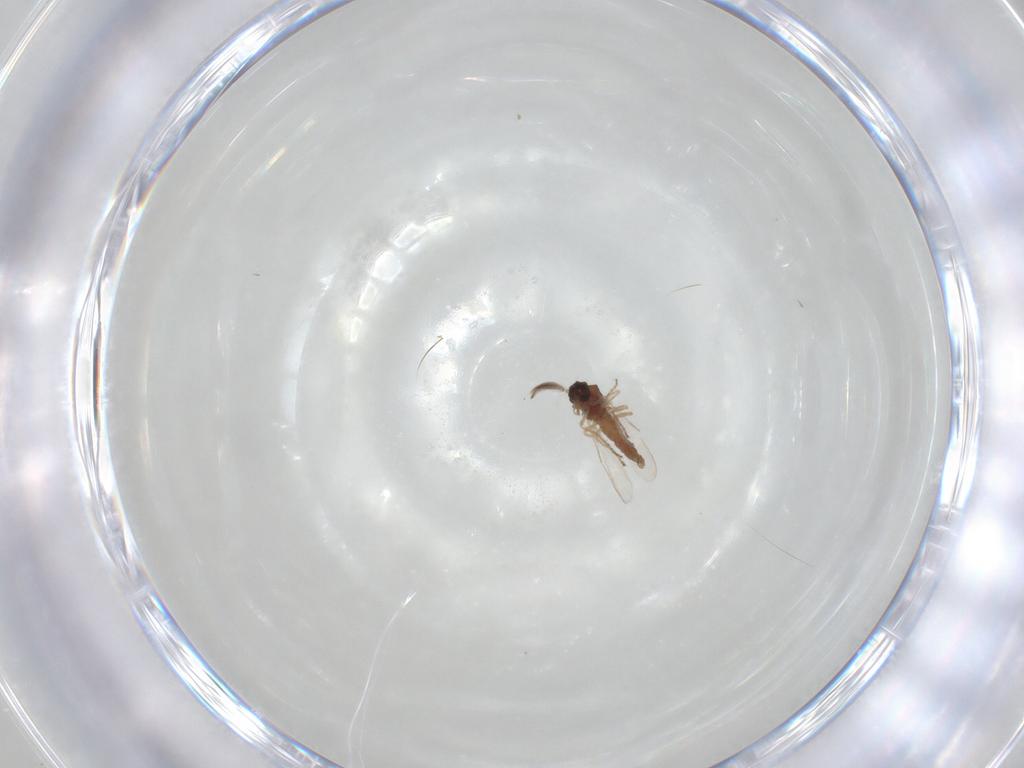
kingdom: Animalia
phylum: Arthropoda
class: Insecta
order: Diptera
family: Ceratopogonidae
